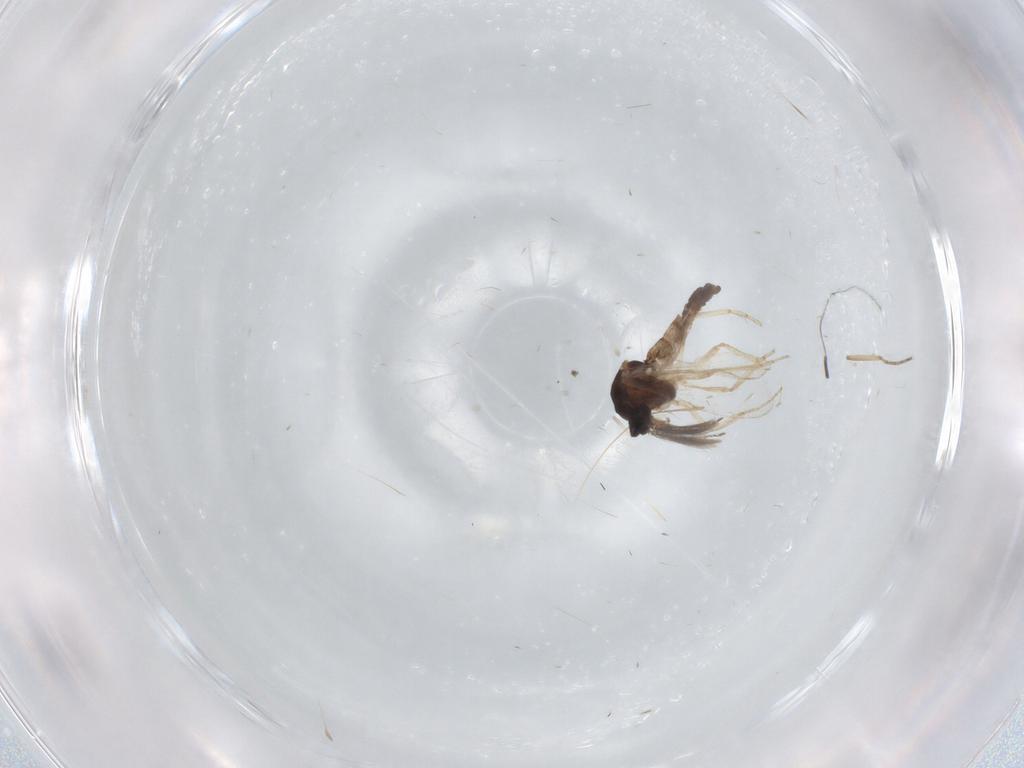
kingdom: Animalia
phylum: Arthropoda
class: Insecta
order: Diptera
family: Ceratopogonidae
